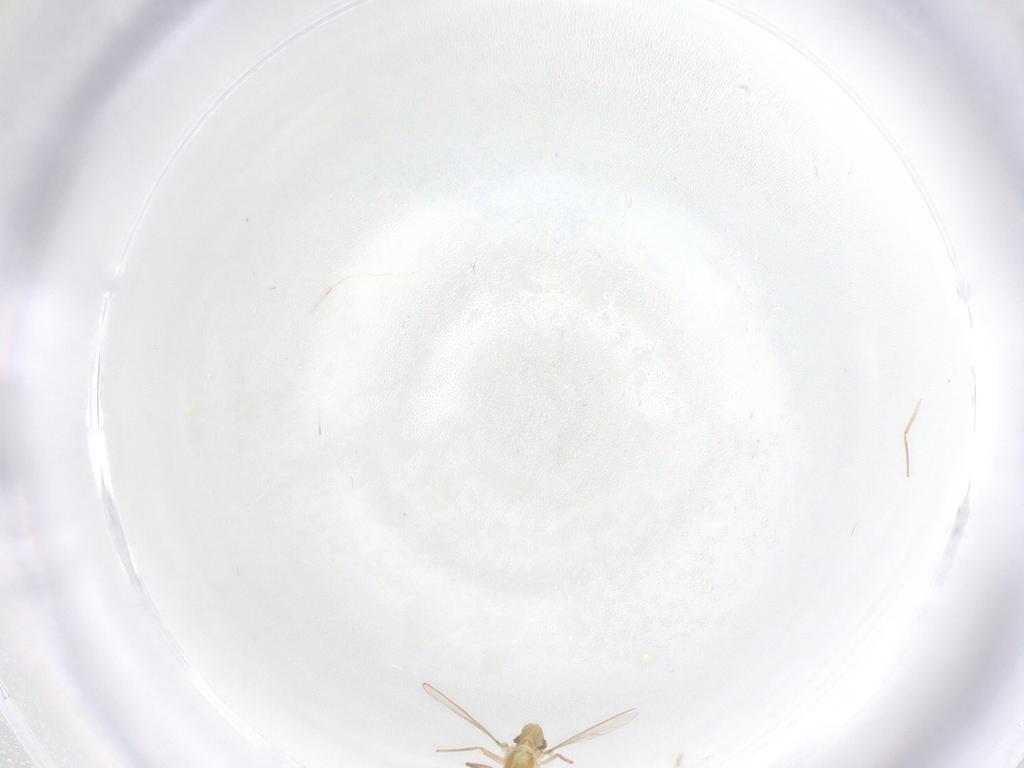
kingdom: Animalia
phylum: Arthropoda
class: Insecta
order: Diptera
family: Chironomidae
